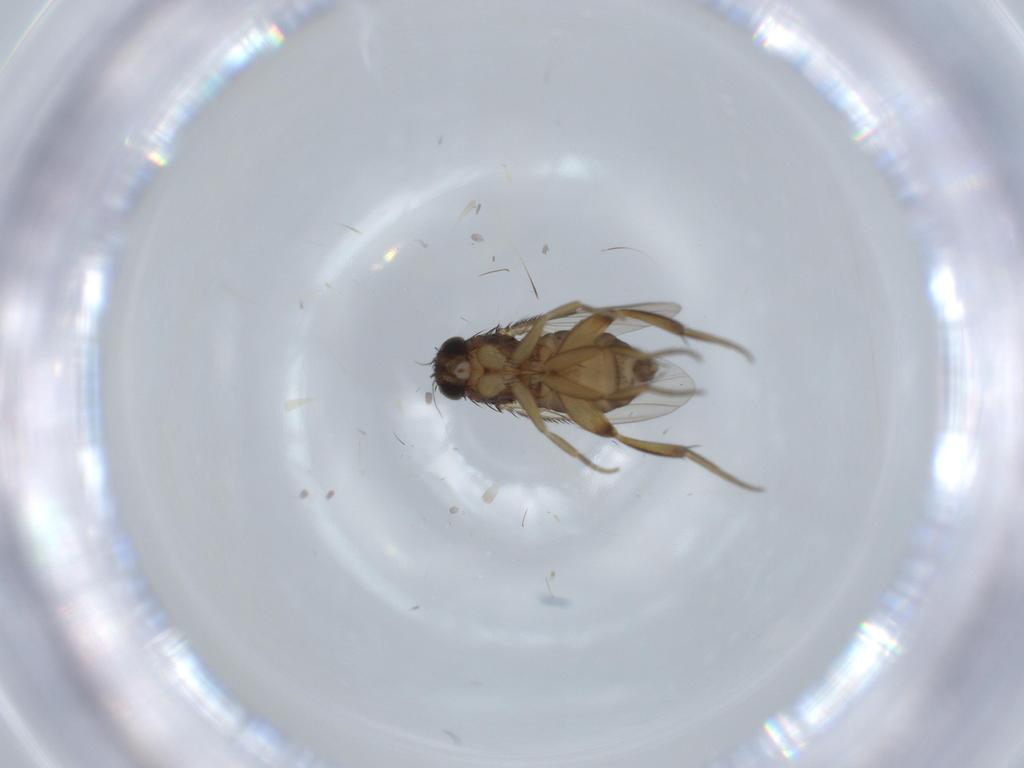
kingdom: Animalia
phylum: Arthropoda
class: Insecta
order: Diptera
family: Phoridae
